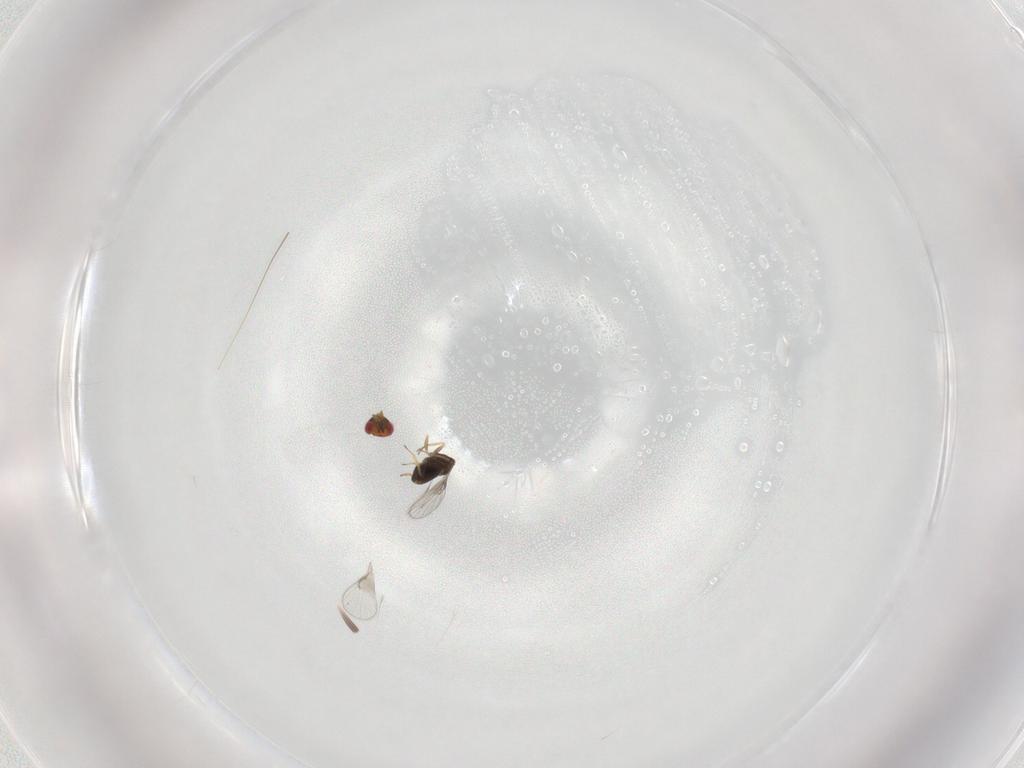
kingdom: Animalia
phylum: Arthropoda
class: Insecta
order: Hymenoptera
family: Trichogrammatidae
